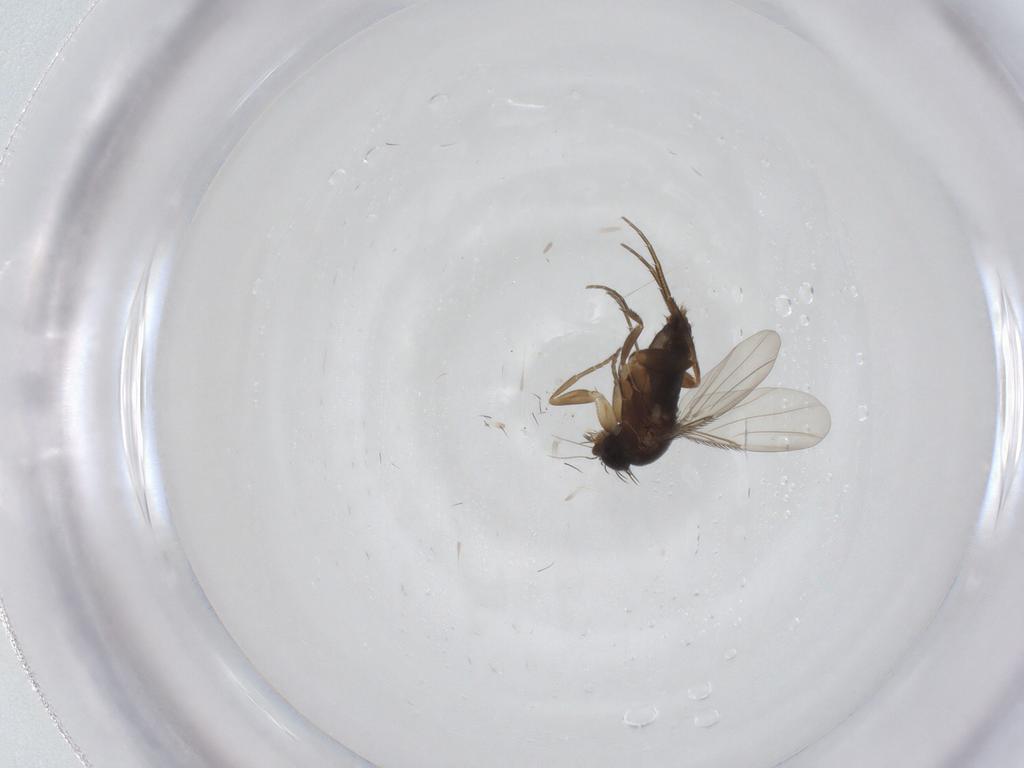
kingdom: Animalia
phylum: Arthropoda
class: Insecta
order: Diptera
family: Phoridae
